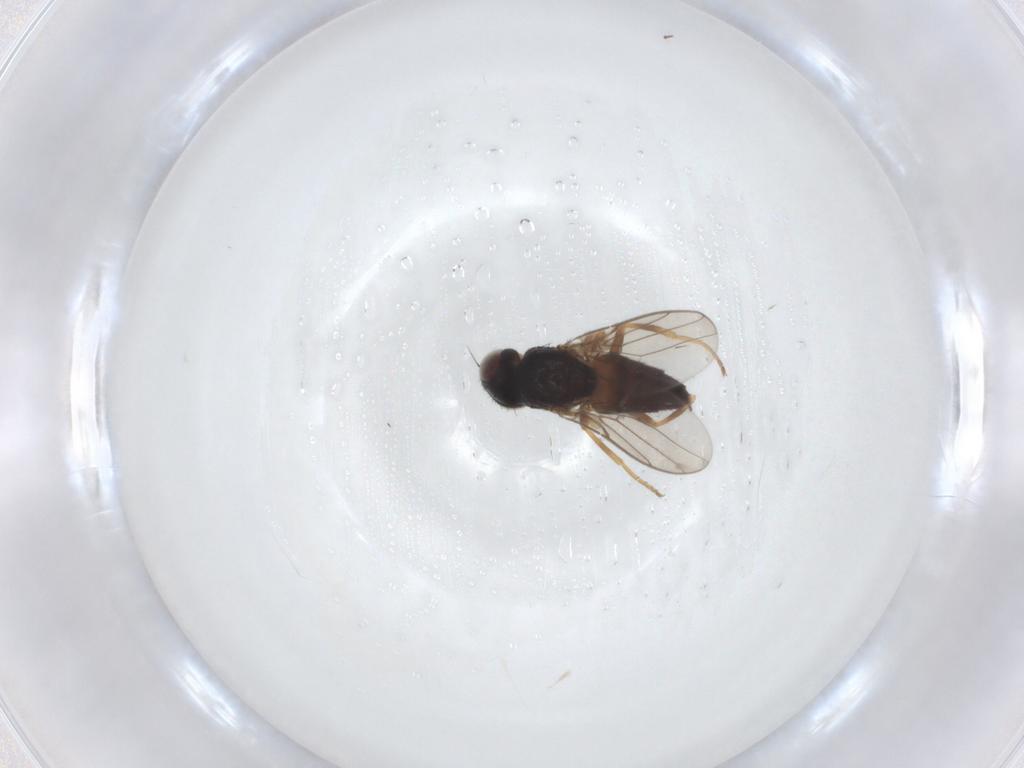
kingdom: Animalia
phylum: Arthropoda
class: Insecta
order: Diptera
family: Chloropidae
